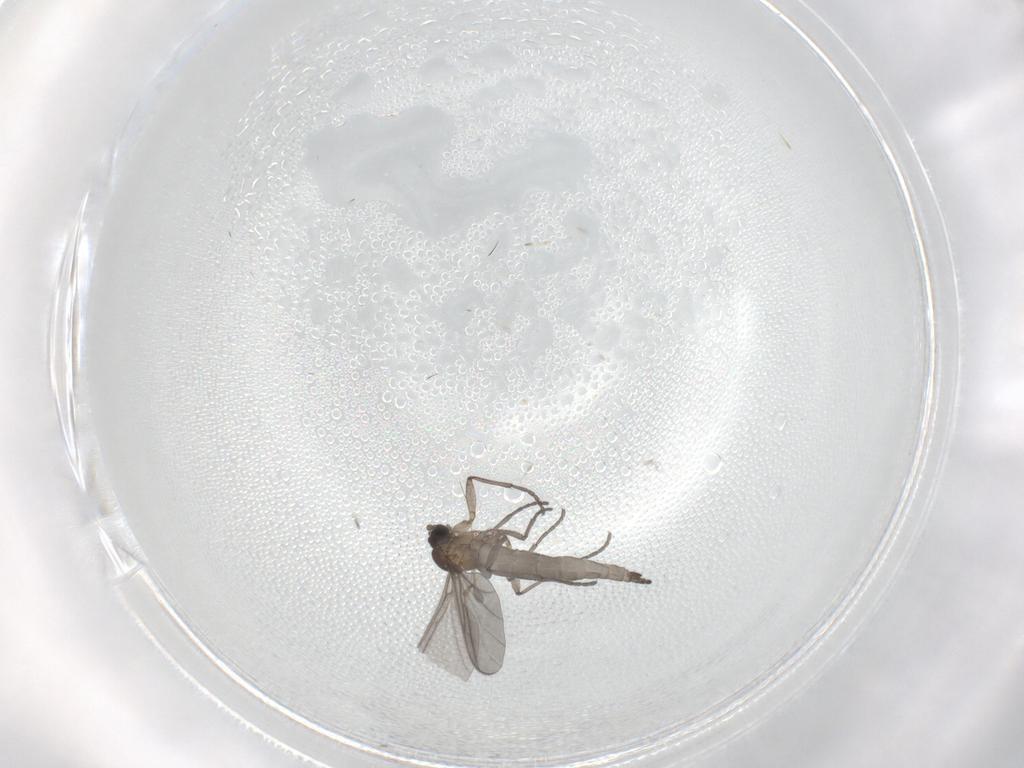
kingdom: Animalia
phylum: Arthropoda
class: Insecta
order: Diptera
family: Sciaridae
